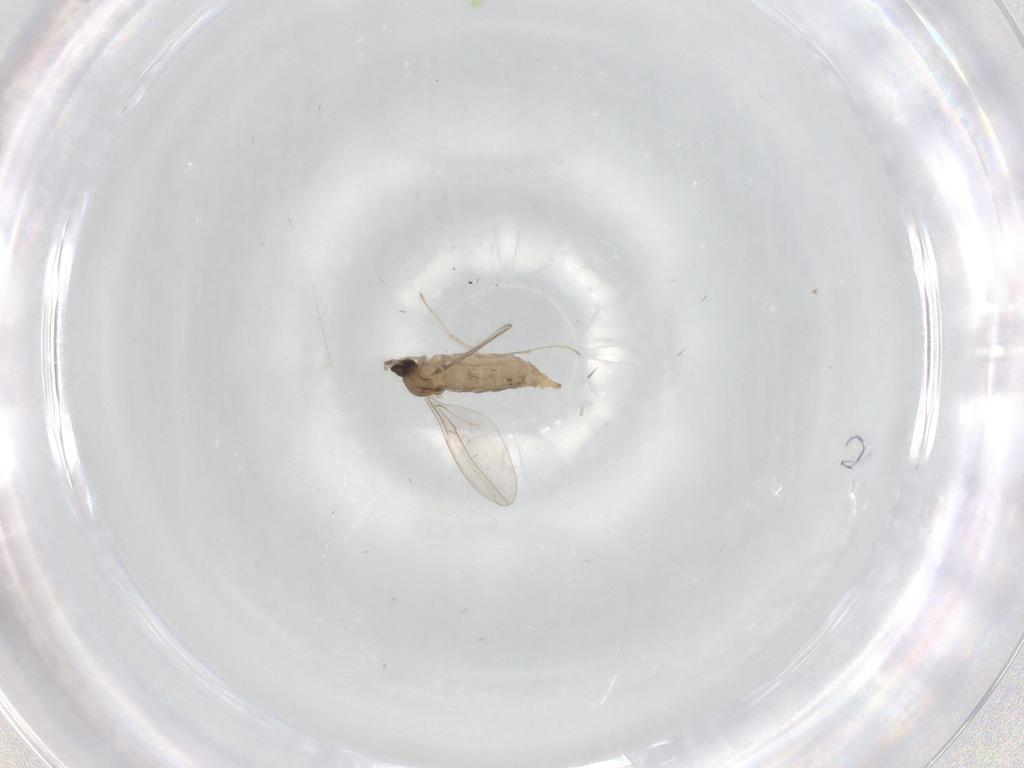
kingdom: Animalia
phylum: Arthropoda
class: Insecta
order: Diptera
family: Cecidomyiidae
